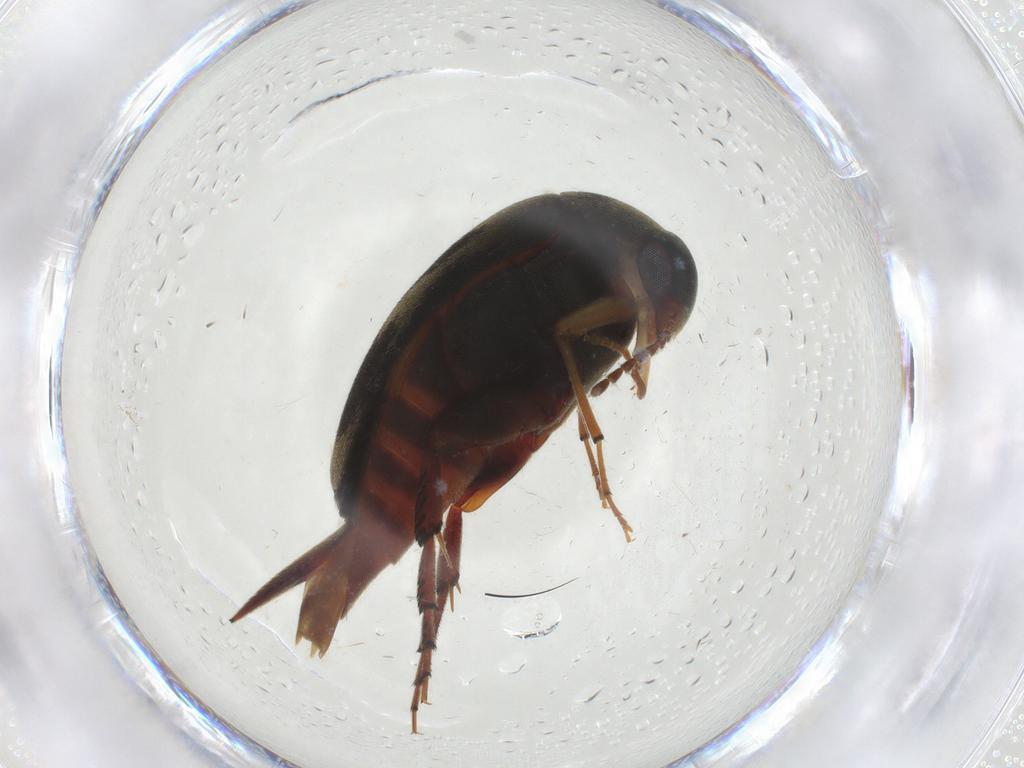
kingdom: Animalia
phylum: Arthropoda
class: Insecta
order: Coleoptera
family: Mordellidae
